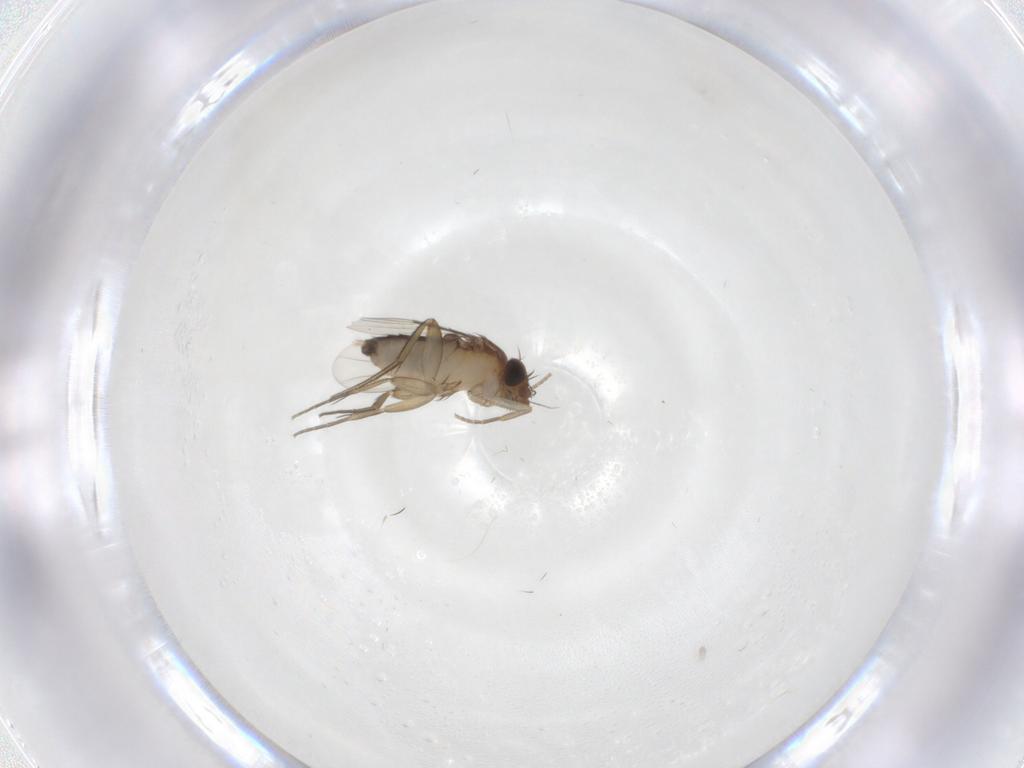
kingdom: Animalia
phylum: Arthropoda
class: Insecta
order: Diptera
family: Phoridae
